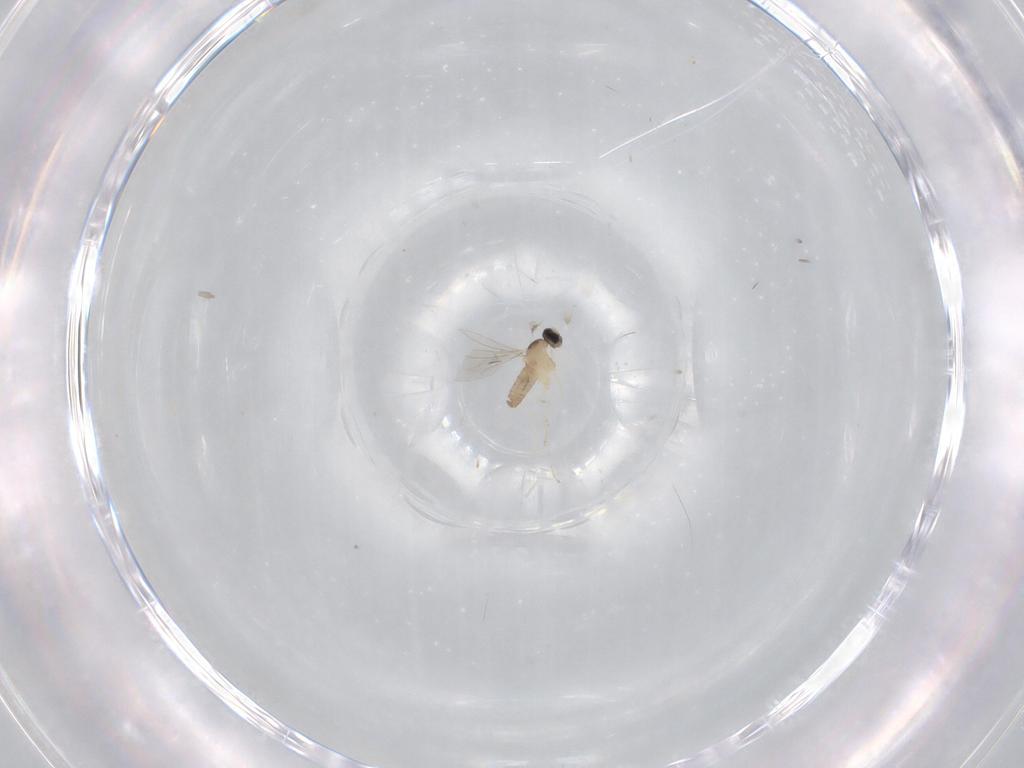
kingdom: Animalia
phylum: Arthropoda
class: Insecta
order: Diptera
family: Cecidomyiidae
